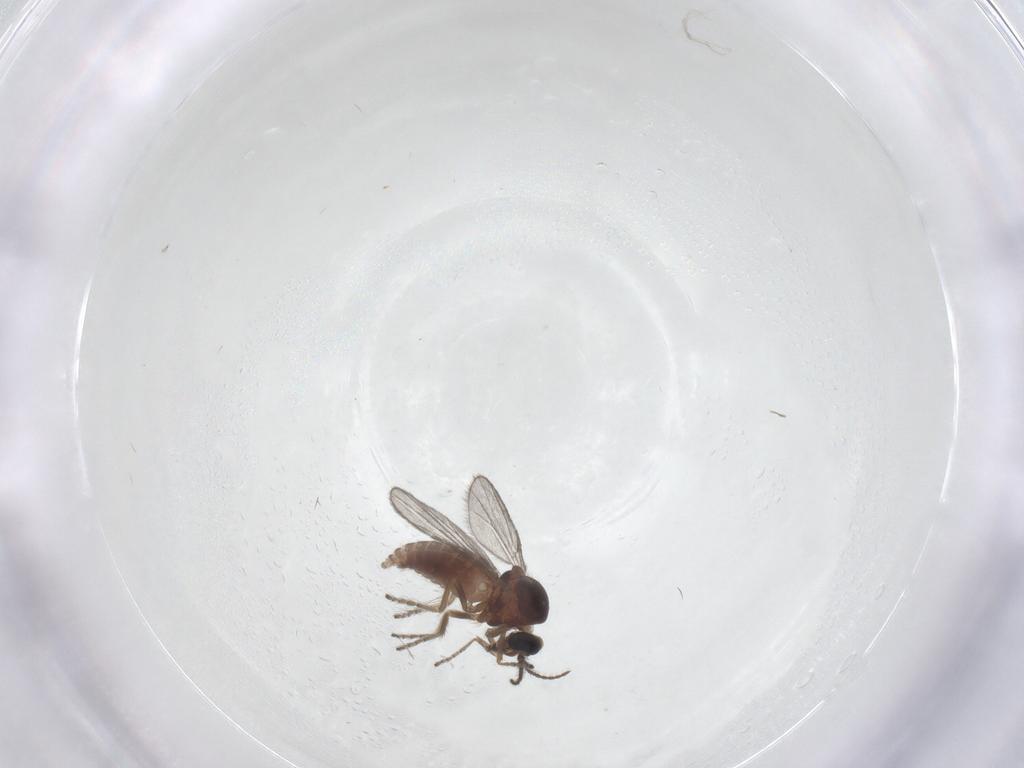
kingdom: Animalia
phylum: Arthropoda
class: Insecta
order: Diptera
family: Ceratopogonidae
